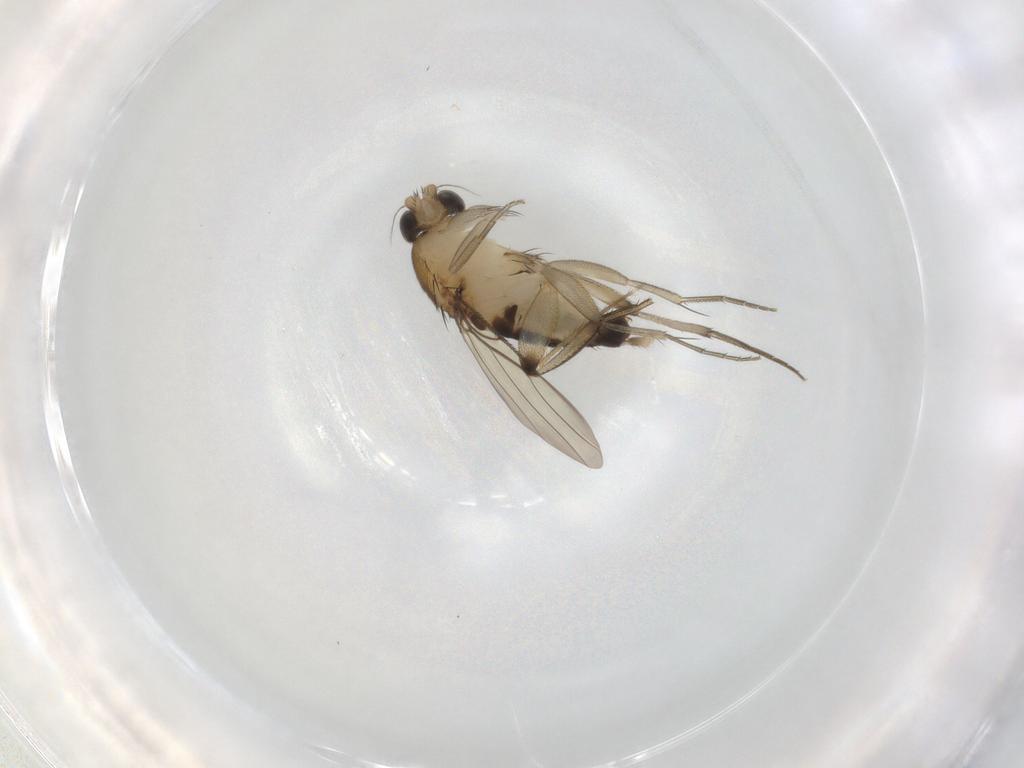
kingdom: Animalia
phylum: Arthropoda
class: Insecta
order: Diptera
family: Phoridae
